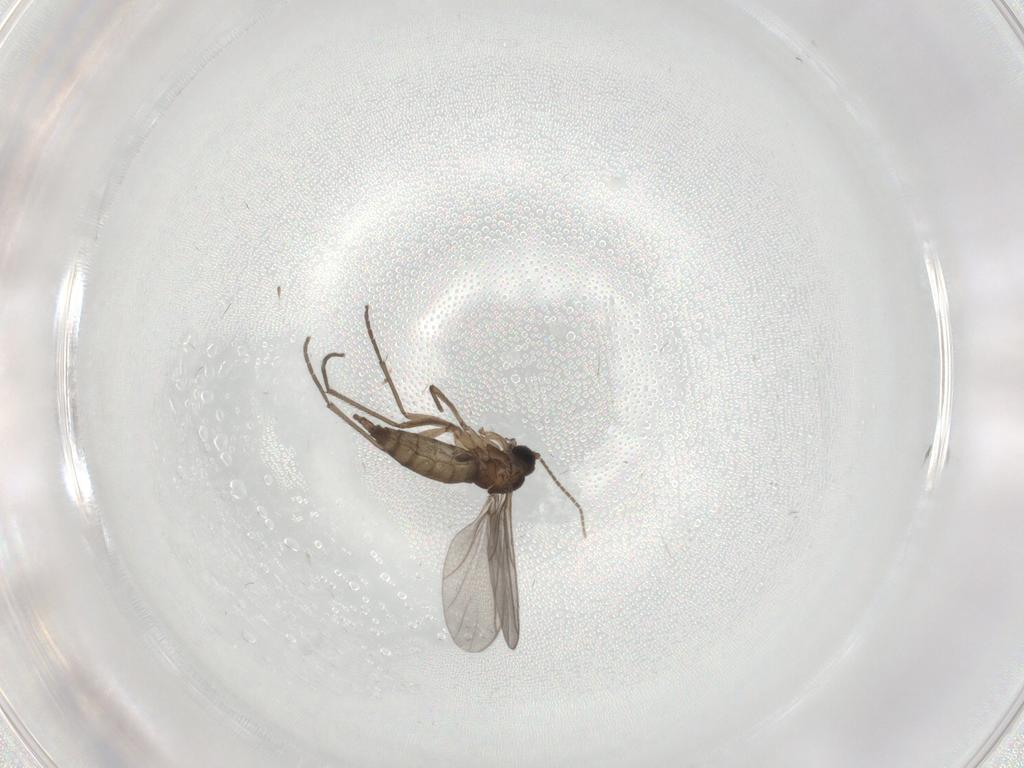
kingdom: Animalia
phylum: Arthropoda
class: Insecta
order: Diptera
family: Sciaridae
